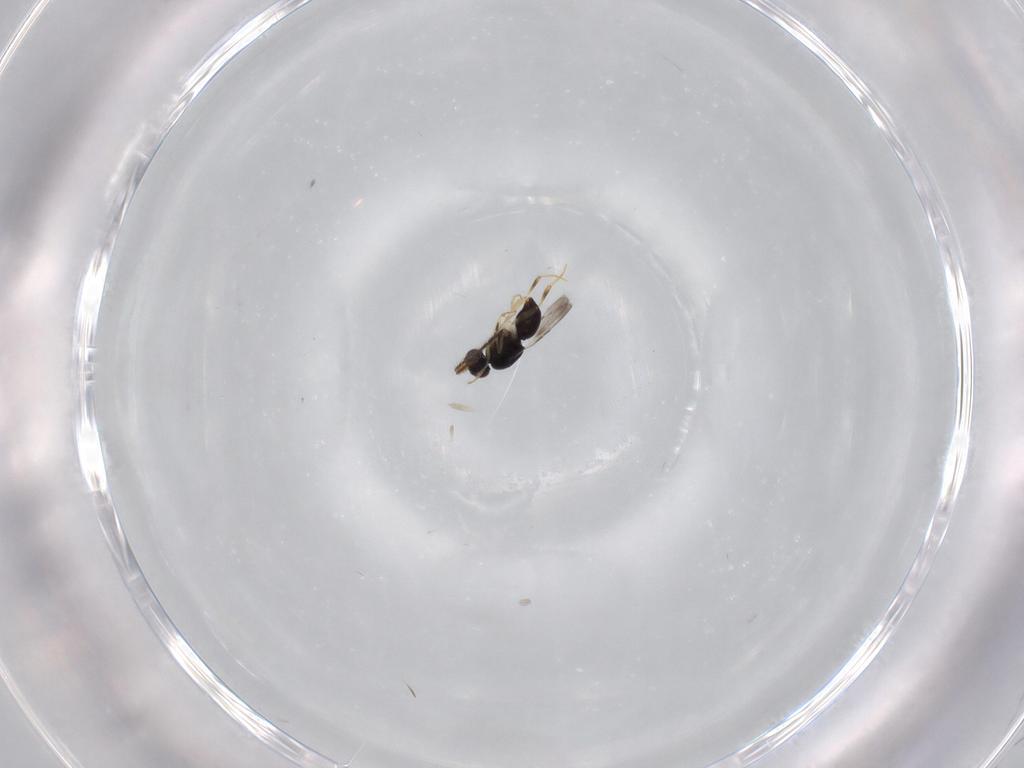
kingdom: Animalia
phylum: Arthropoda
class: Insecta
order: Hymenoptera
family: Ceraphronidae
